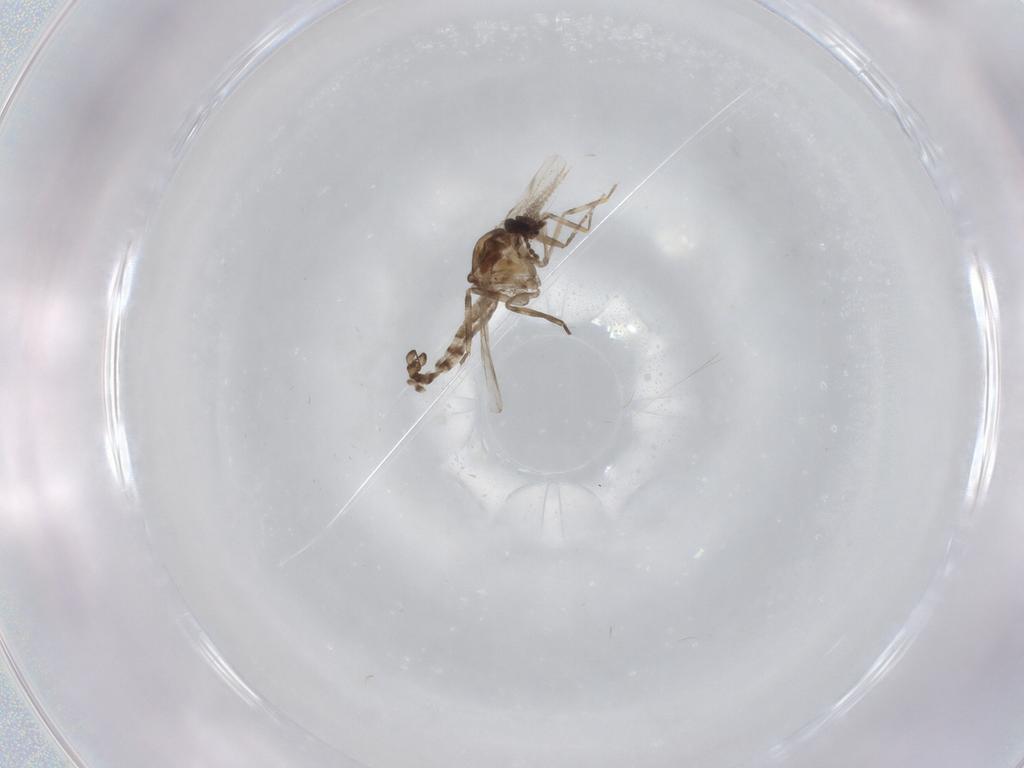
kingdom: Animalia
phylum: Arthropoda
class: Insecta
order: Diptera
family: Sciaridae
